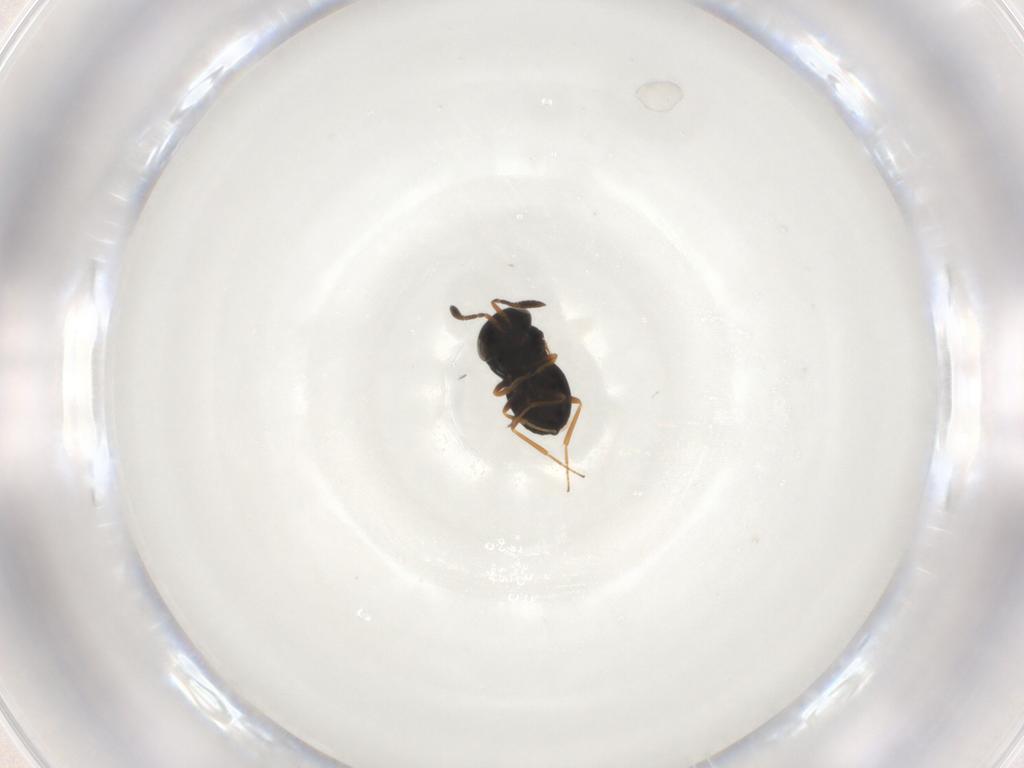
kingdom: Animalia
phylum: Arthropoda
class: Insecta
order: Hymenoptera
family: Scelionidae
